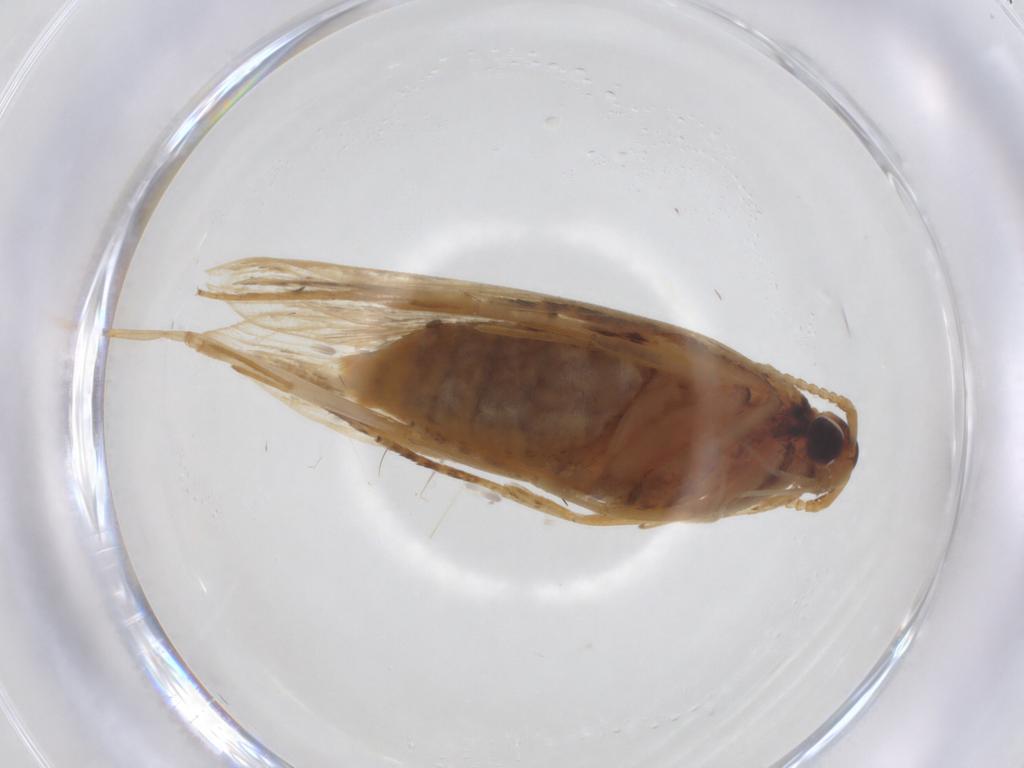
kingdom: Animalia
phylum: Arthropoda
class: Insecta
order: Lepidoptera
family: Lecithoceridae
